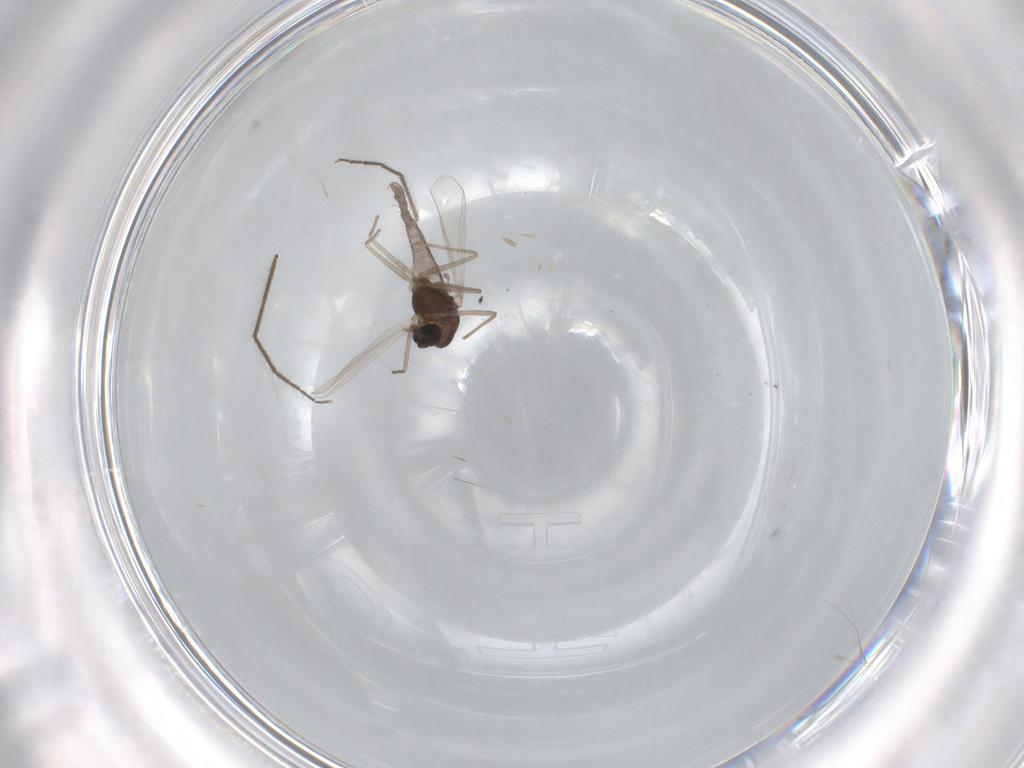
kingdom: Animalia
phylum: Arthropoda
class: Insecta
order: Diptera
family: Chironomidae
